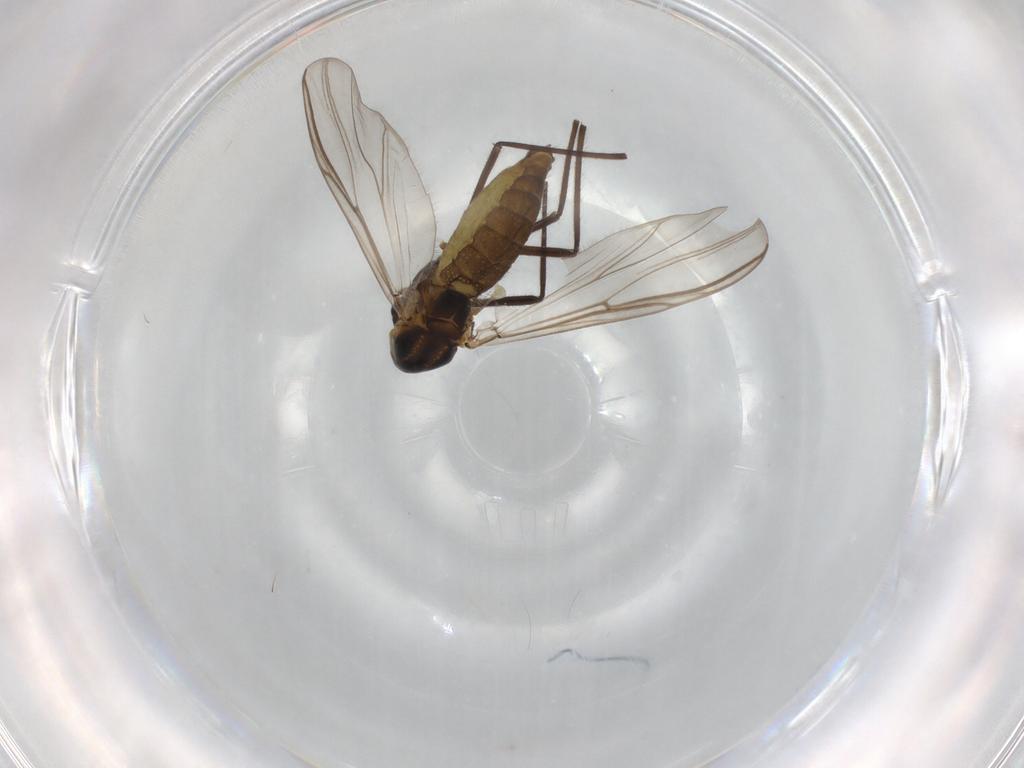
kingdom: Animalia
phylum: Arthropoda
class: Insecta
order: Diptera
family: Chironomidae
